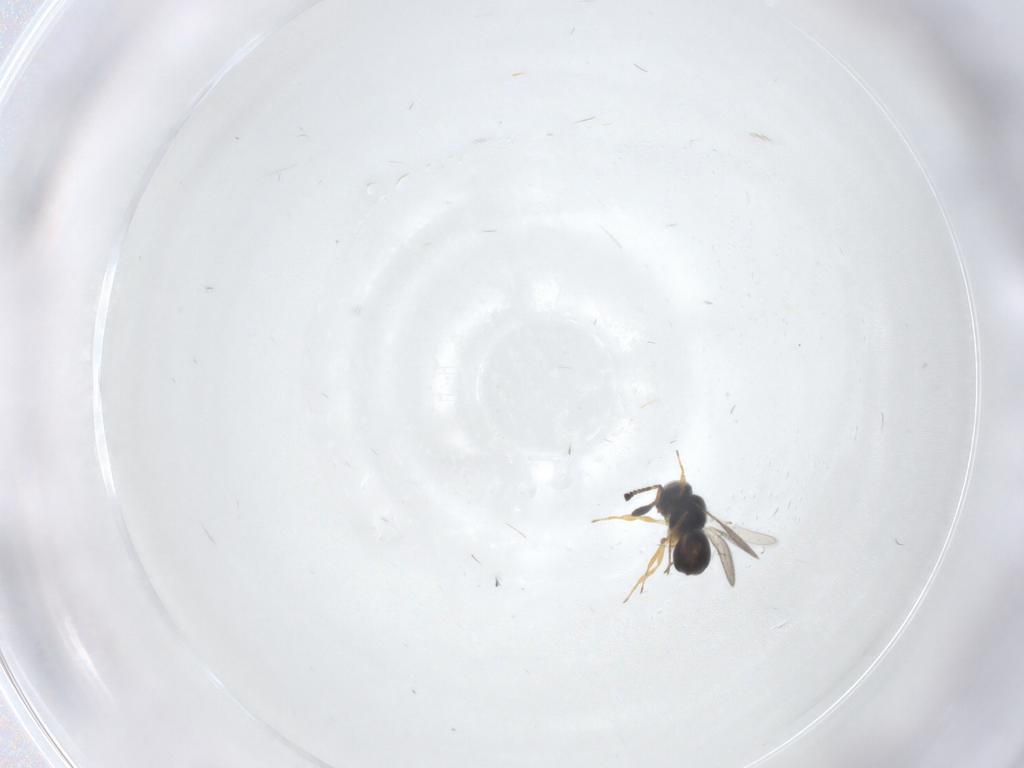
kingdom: Animalia
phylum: Arthropoda
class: Insecta
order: Hymenoptera
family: Scelionidae
